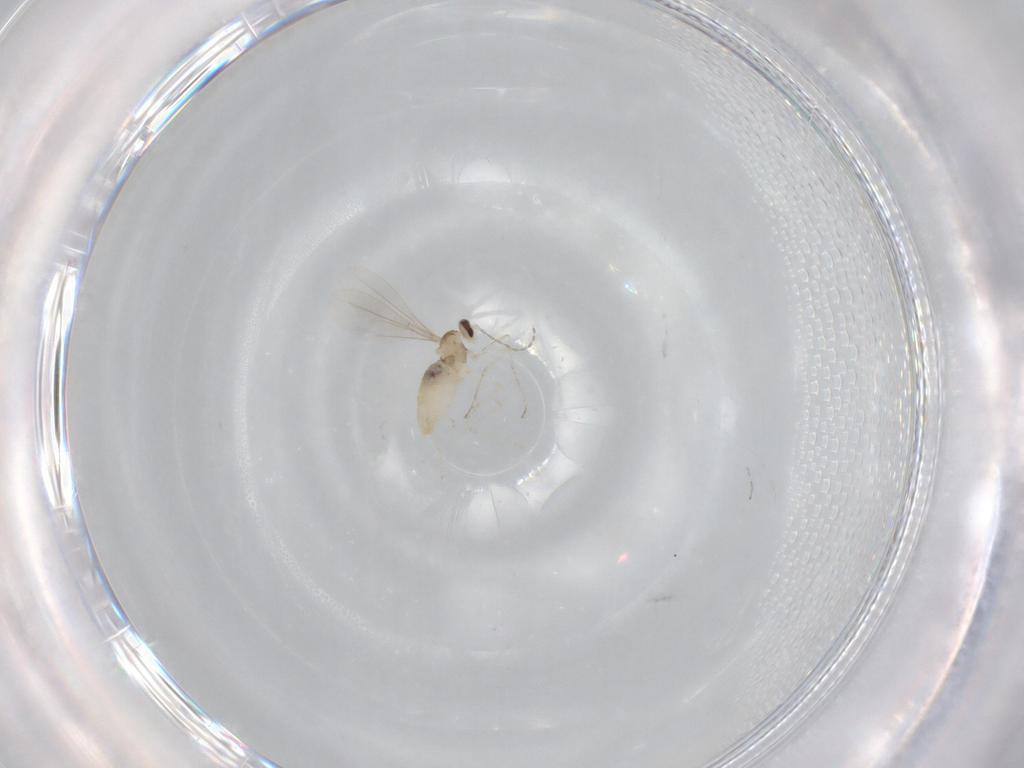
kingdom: Animalia
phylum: Arthropoda
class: Insecta
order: Diptera
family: Cecidomyiidae
